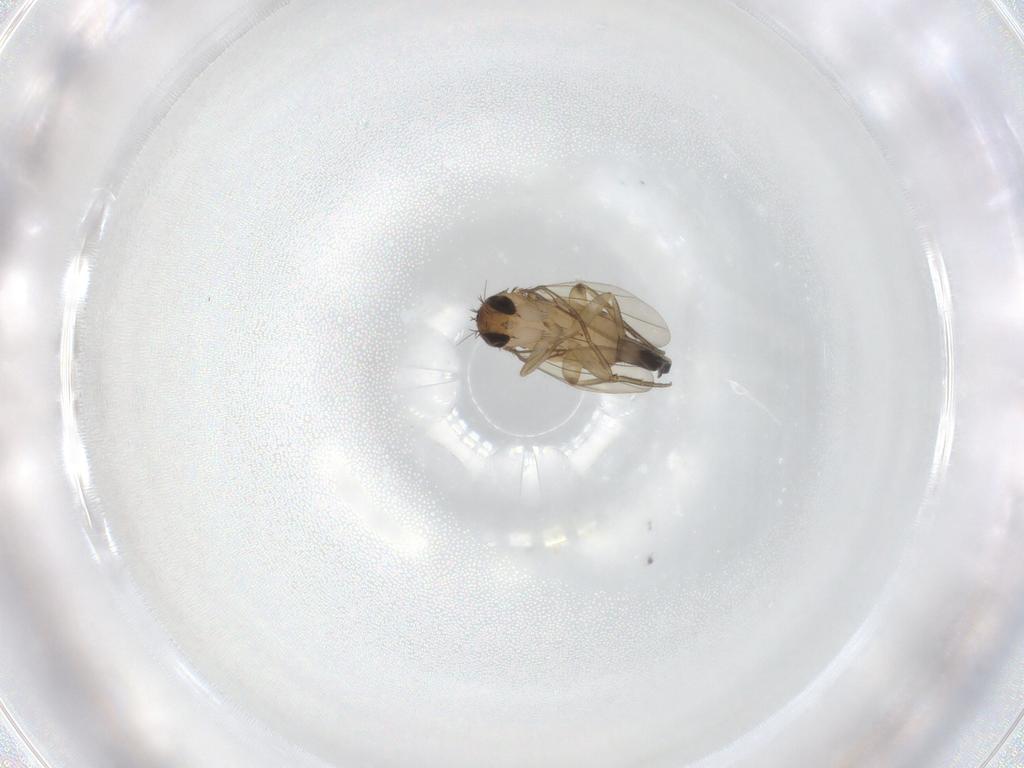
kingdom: Animalia
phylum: Arthropoda
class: Insecta
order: Diptera
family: Phoridae
